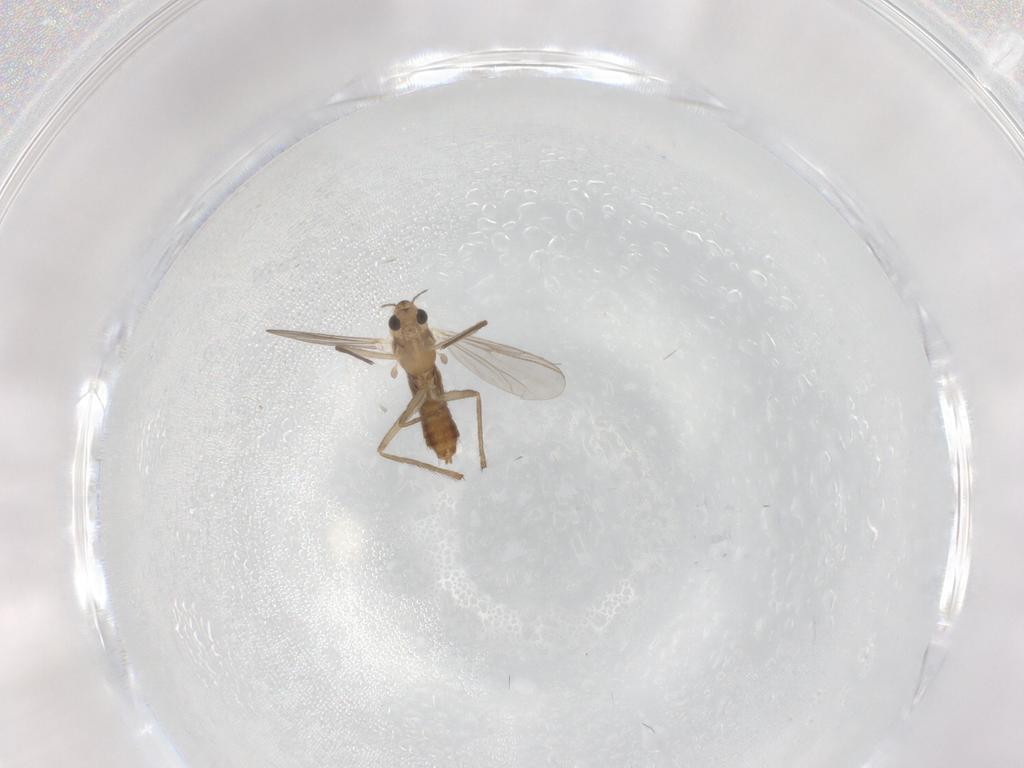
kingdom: Animalia
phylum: Arthropoda
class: Insecta
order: Diptera
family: Chironomidae
